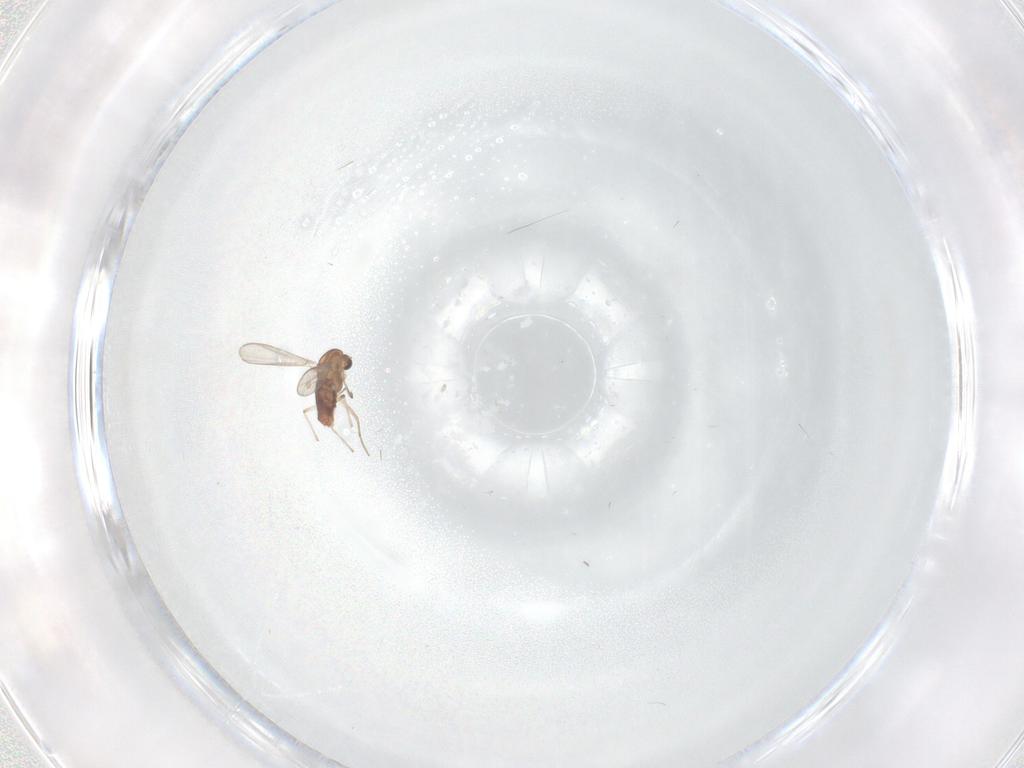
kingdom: Animalia
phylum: Arthropoda
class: Insecta
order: Diptera
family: Chironomidae
